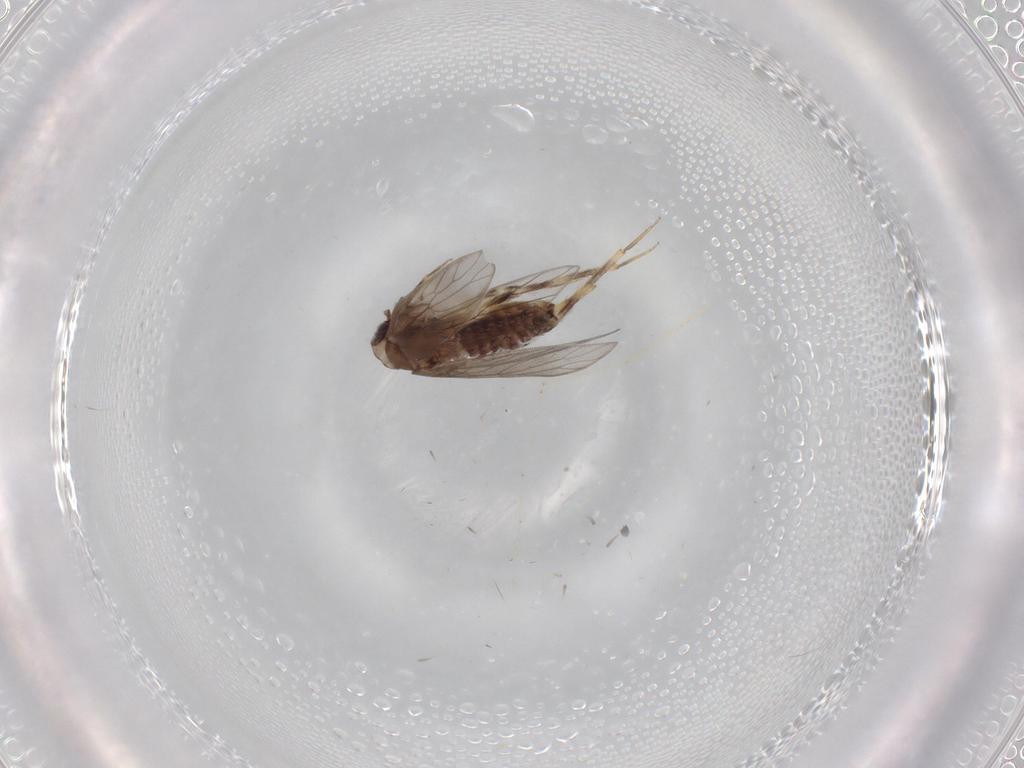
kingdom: Animalia
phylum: Arthropoda
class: Insecta
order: Psocodea
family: Lepidopsocidae
